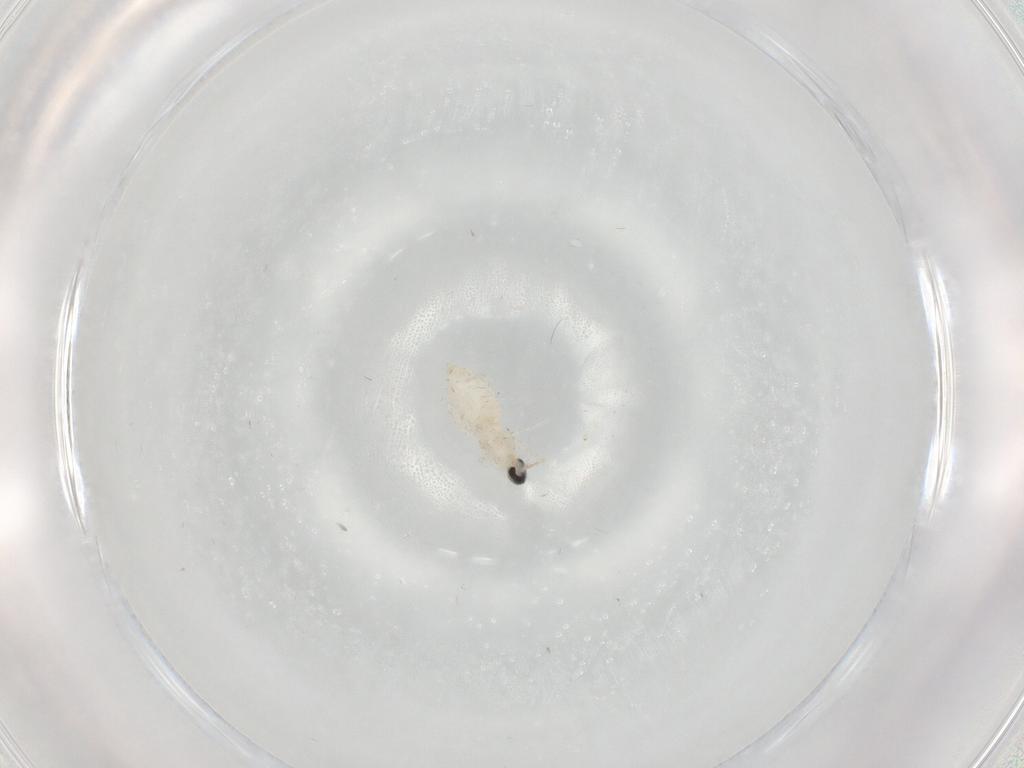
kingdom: Animalia
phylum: Arthropoda
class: Insecta
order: Diptera
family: Cecidomyiidae
